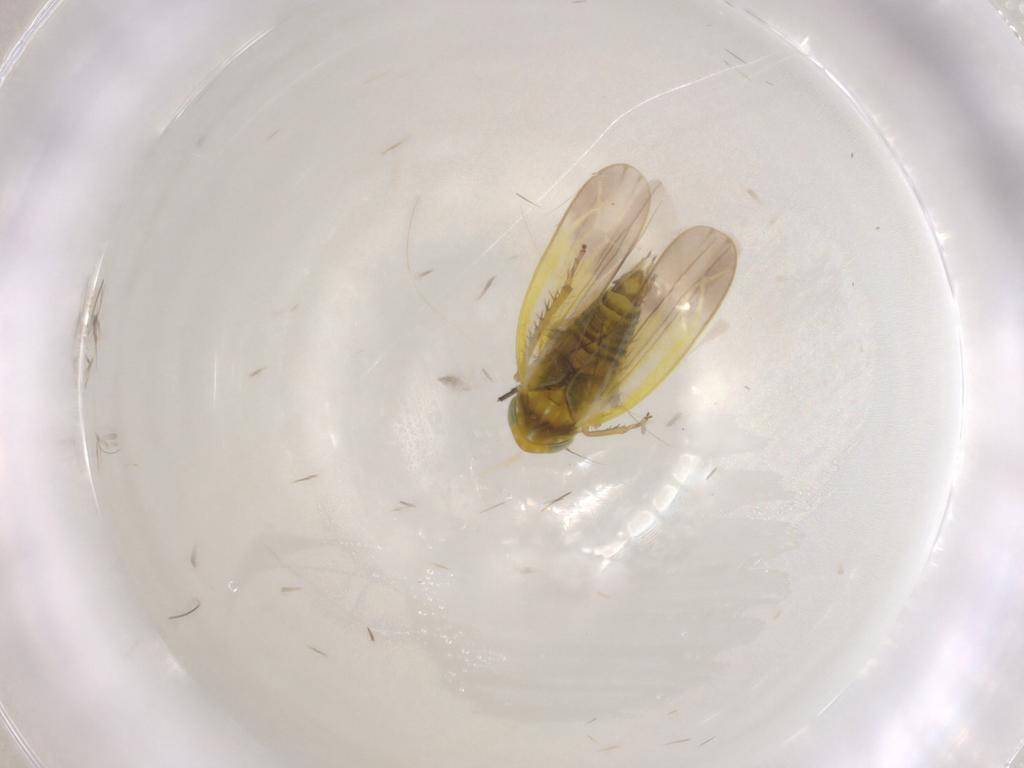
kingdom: Animalia
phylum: Arthropoda
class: Insecta
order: Hemiptera
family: Cicadellidae
